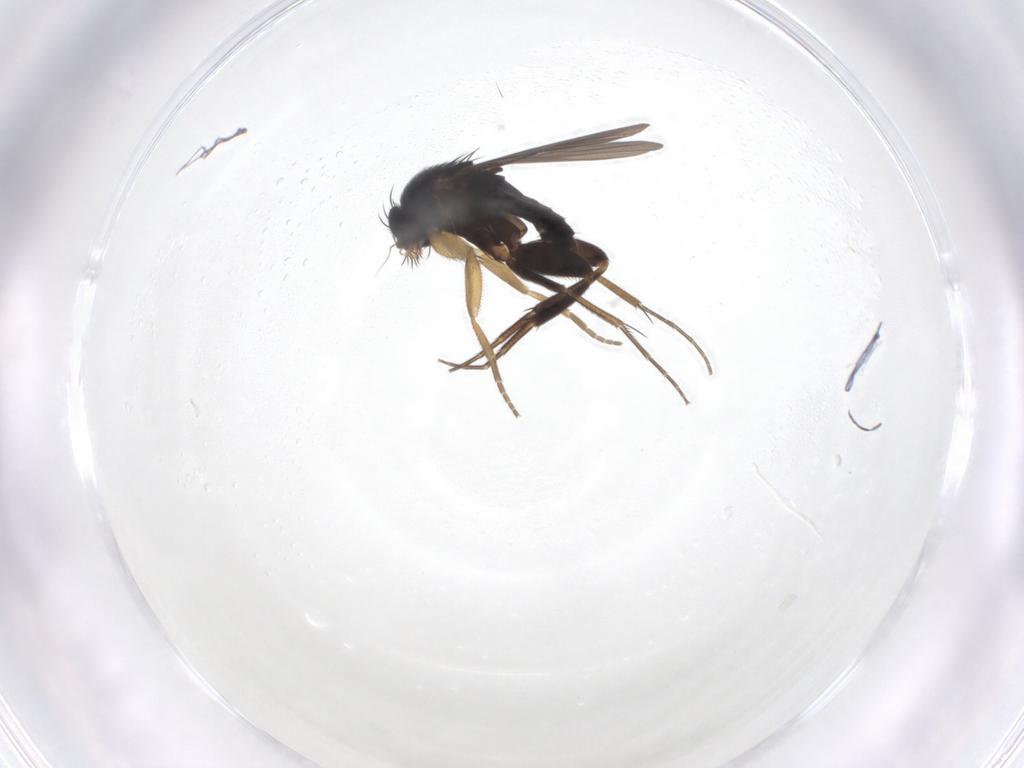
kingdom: Animalia
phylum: Arthropoda
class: Insecta
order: Diptera
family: Phoridae
